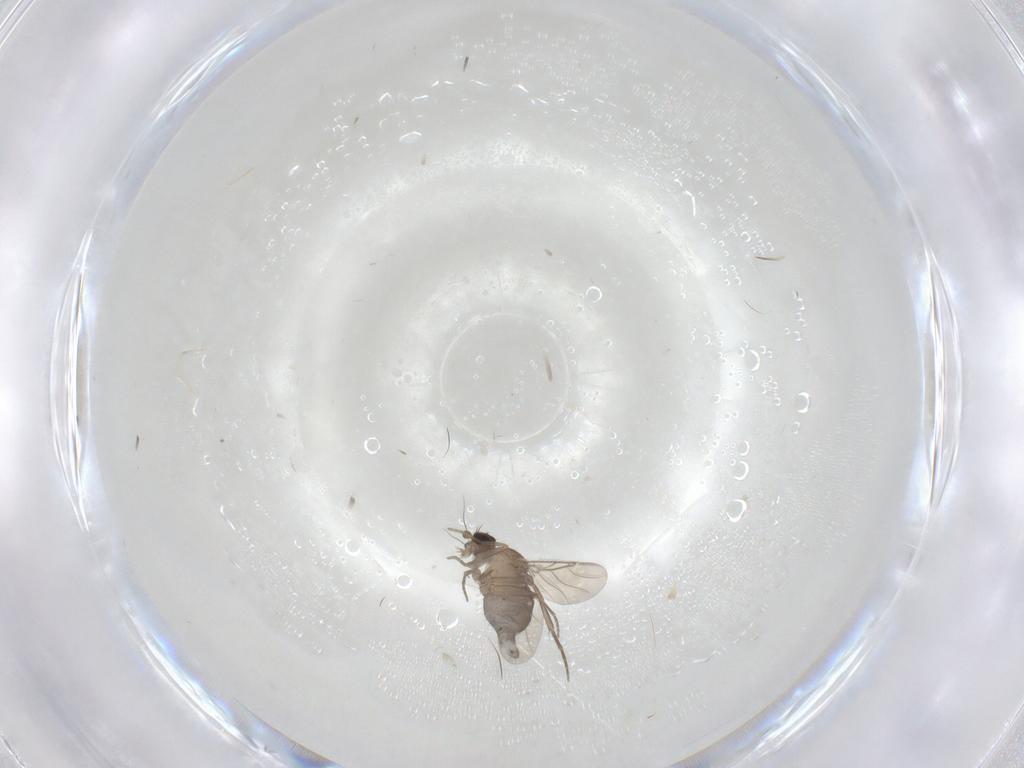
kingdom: Animalia
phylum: Arthropoda
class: Insecta
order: Diptera
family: Phoridae
